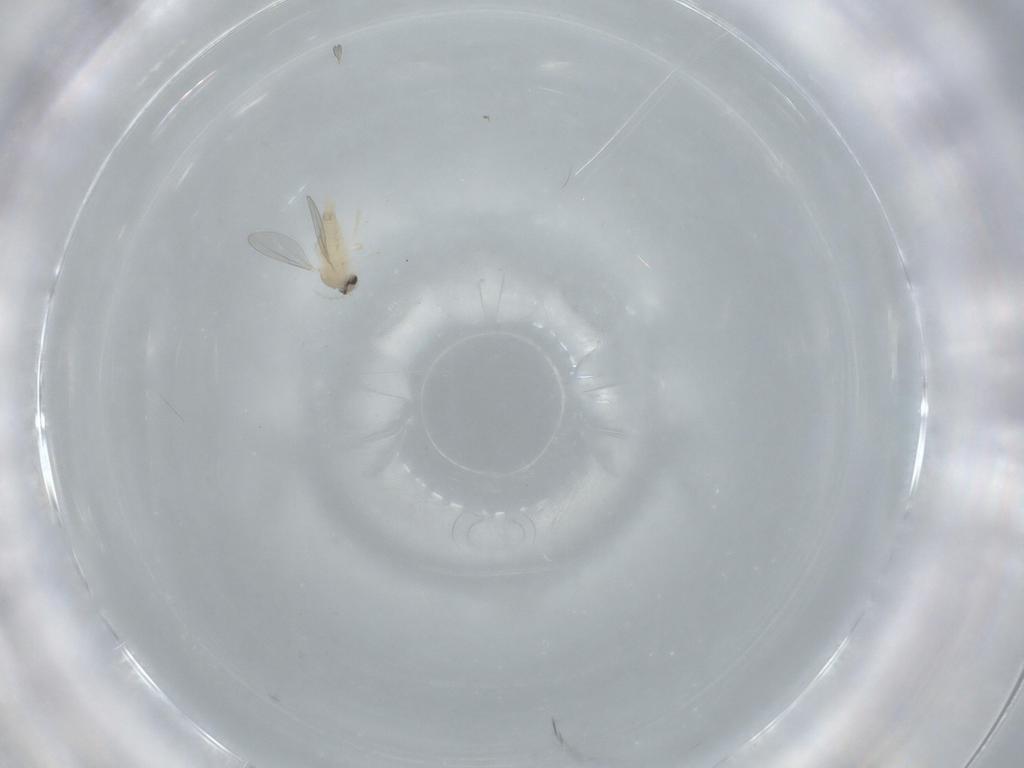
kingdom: Animalia
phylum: Arthropoda
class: Insecta
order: Diptera
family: Cecidomyiidae
